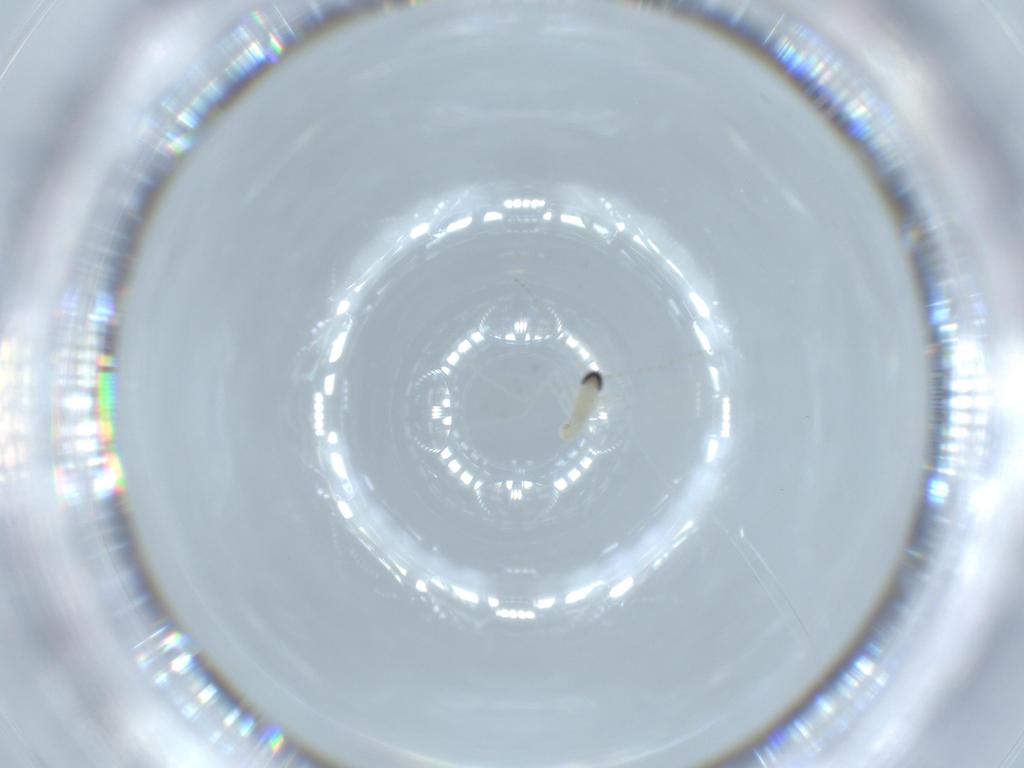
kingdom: Animalia
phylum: Arthropoda
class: Insecta
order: Diptera
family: Cecidomyiidae
